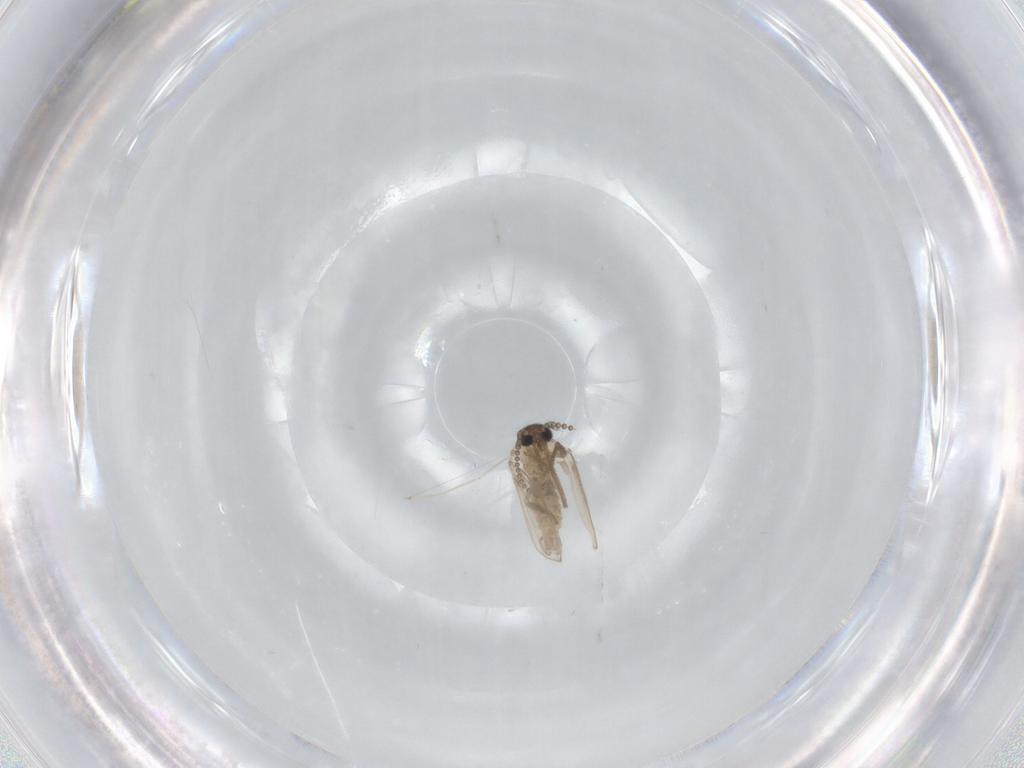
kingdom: Animalia
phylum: Arthropoda
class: Insecta
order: Diptera
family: Psychodidae
